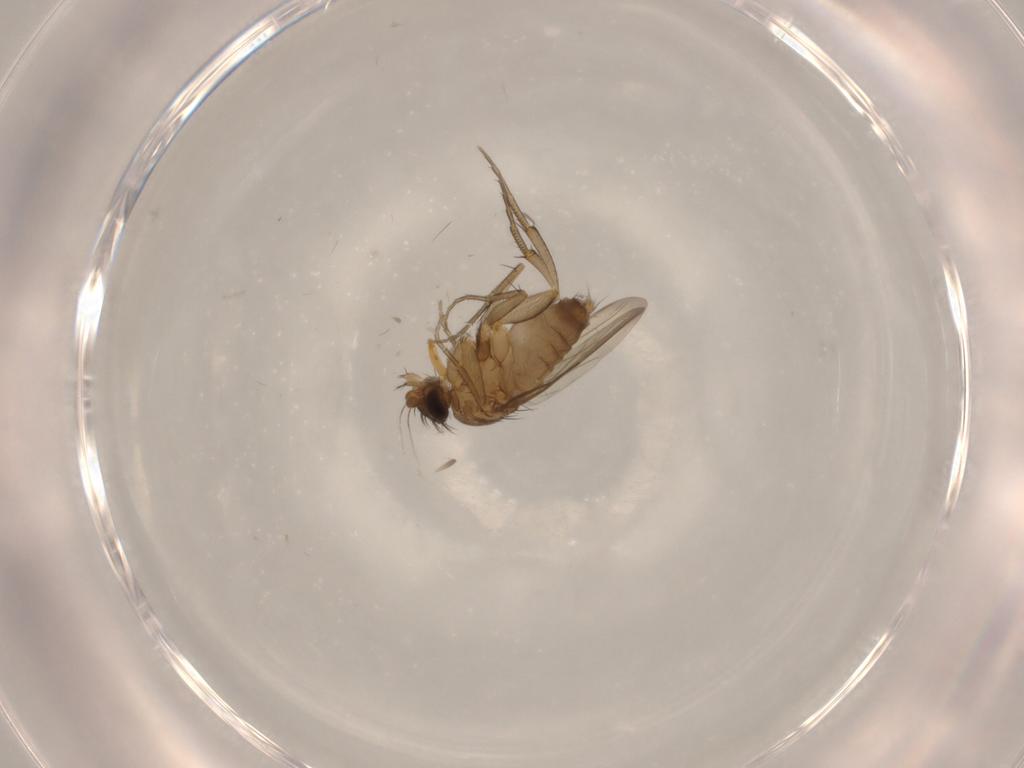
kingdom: Animalia
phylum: Arthropoda
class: Insecta
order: Diptera
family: Phoridae
